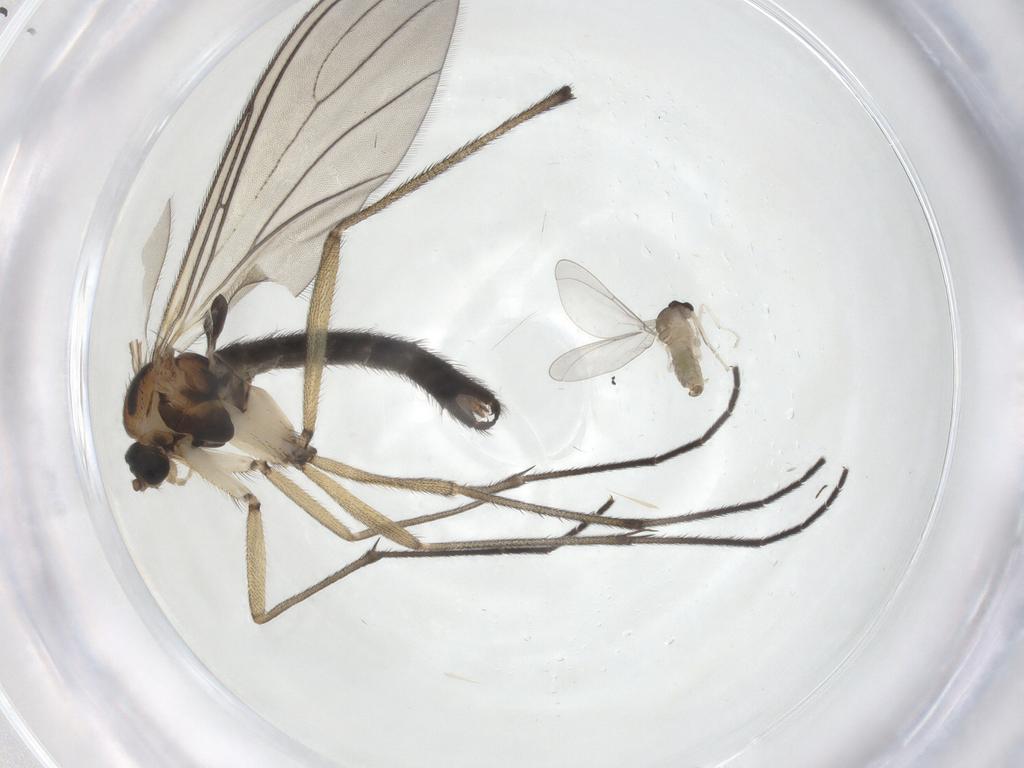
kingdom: Animalia
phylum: Arthropoda
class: Insecta
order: Diptera
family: Sciaridae
